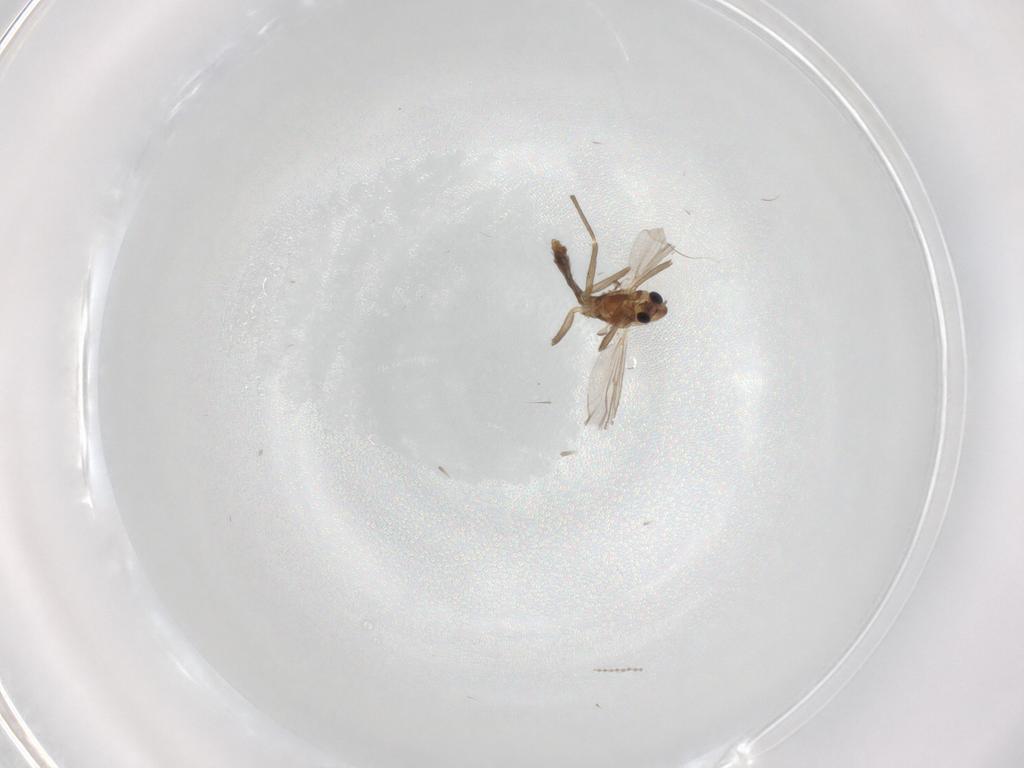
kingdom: Animalia
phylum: Arthropoda
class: Insecta
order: Diptera
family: Chironomidae
